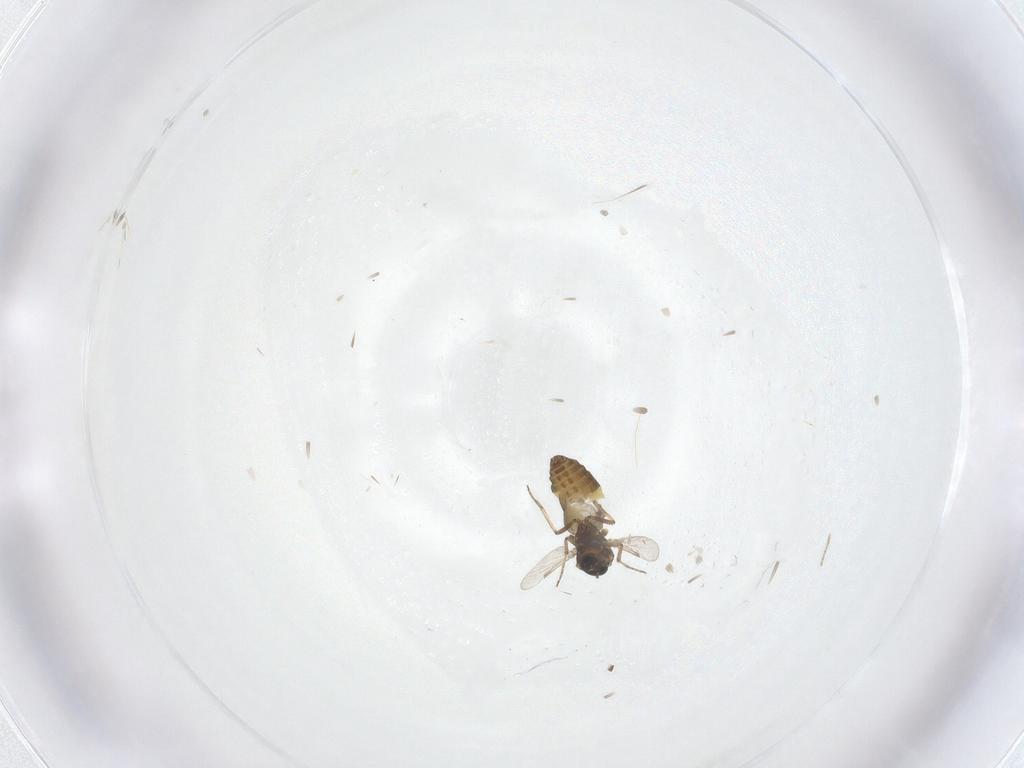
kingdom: Animalia
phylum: Arthropoda
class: Insecta
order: Diptera
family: Ceratopogonidae
